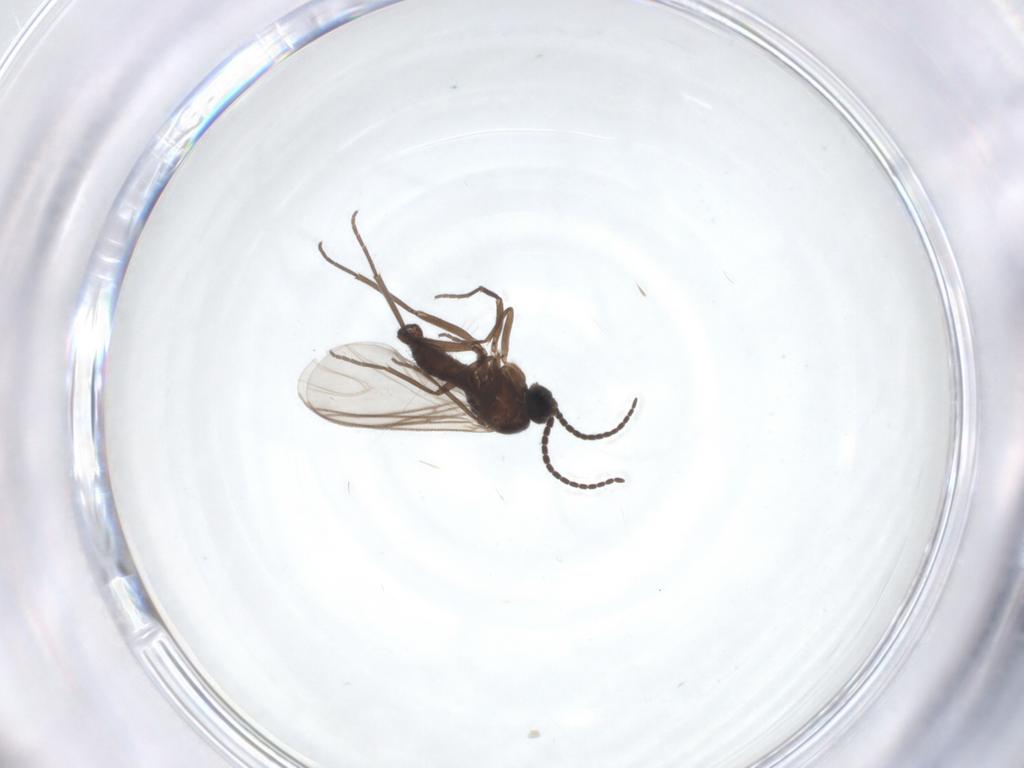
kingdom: Animalia
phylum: Arthropoda
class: Insecta
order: Diptera
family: Sciaridae
